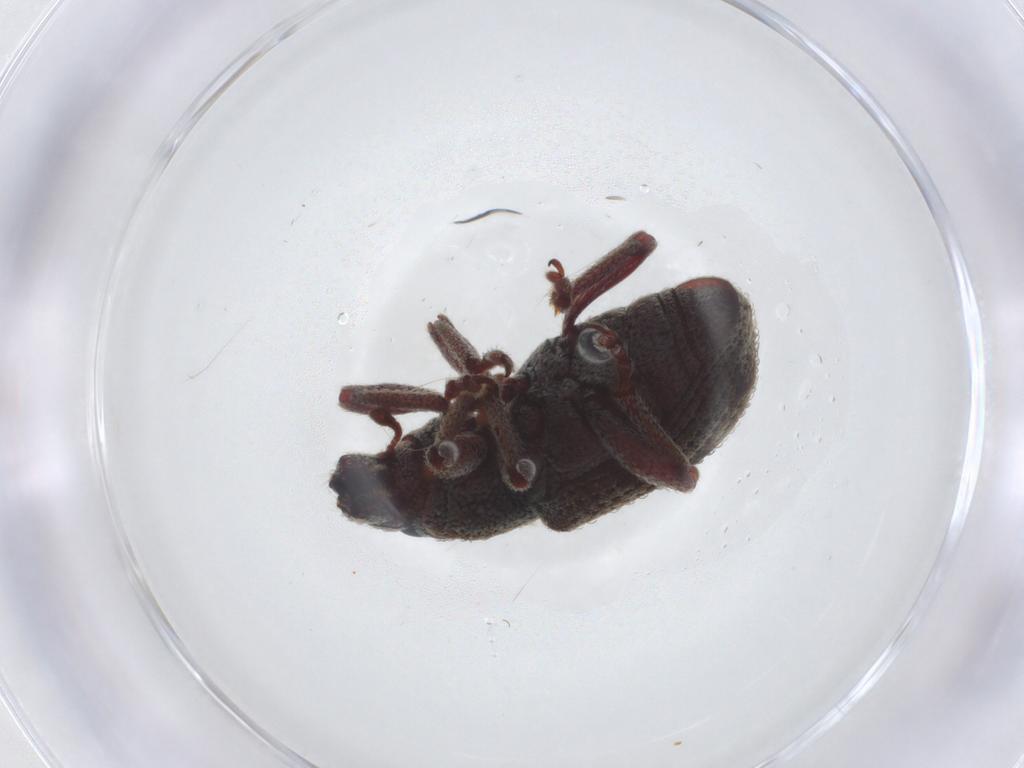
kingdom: Animalia
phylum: Arthropoda
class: Insecta
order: Coleoptera
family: Curculionidae
